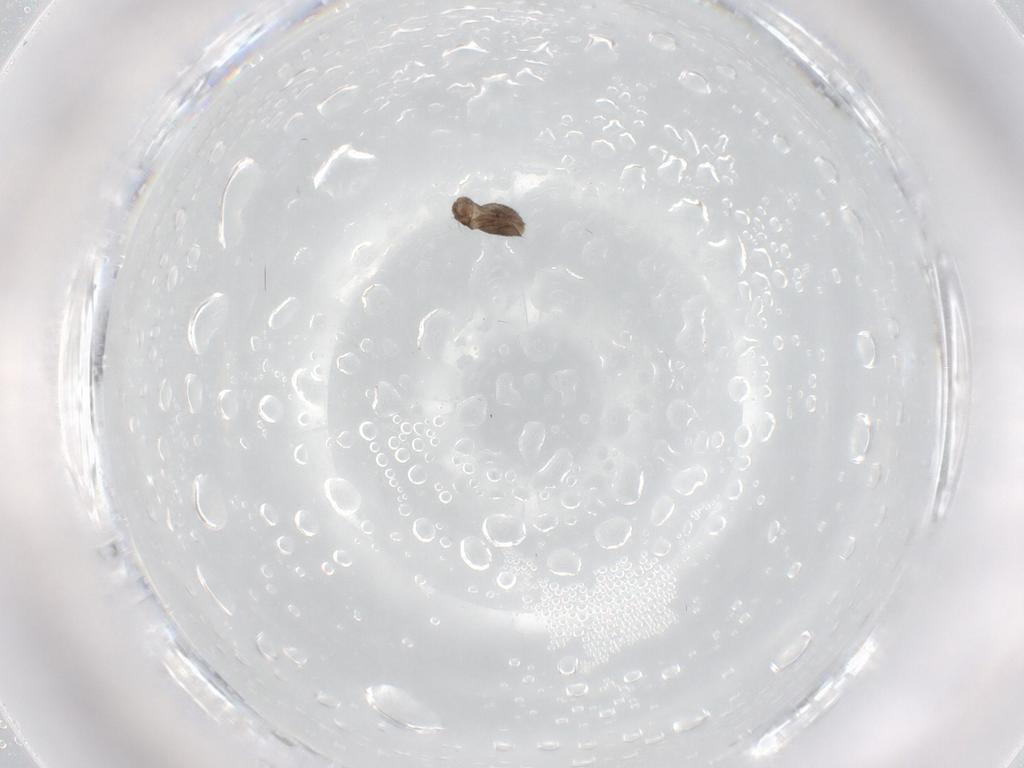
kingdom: Animalia
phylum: Arthropoda
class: Insecta
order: Diptera
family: Phoridae
